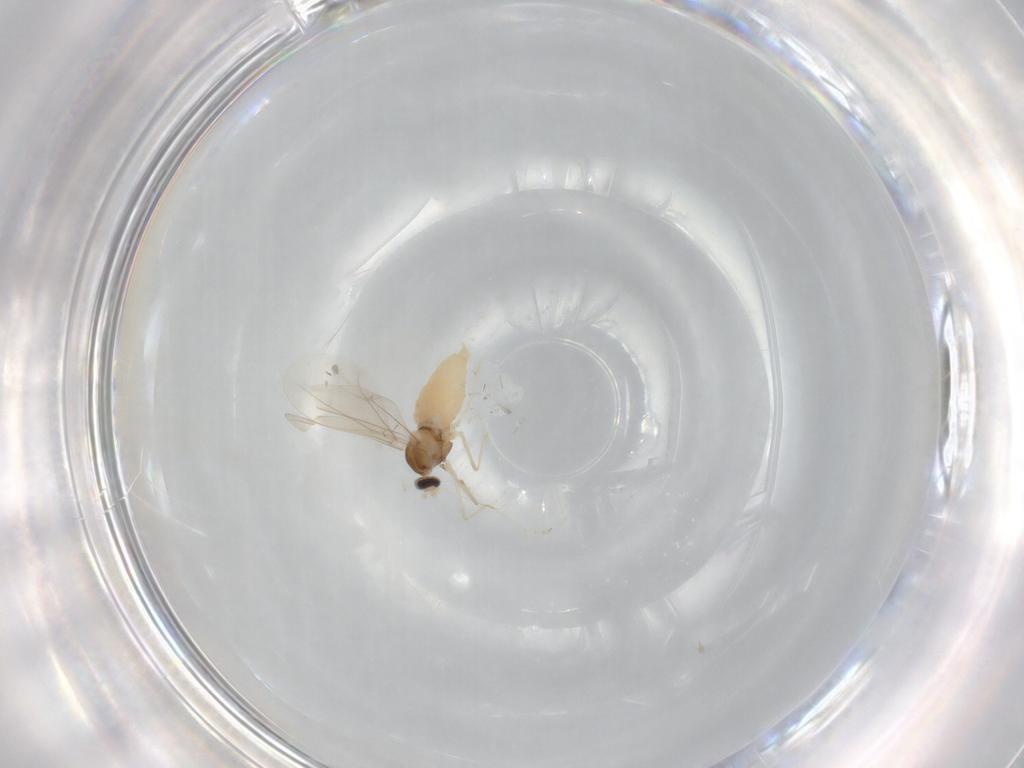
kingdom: Animalia
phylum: Arthropoda
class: Insecta
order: Diptera
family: Cecidomyiidae
